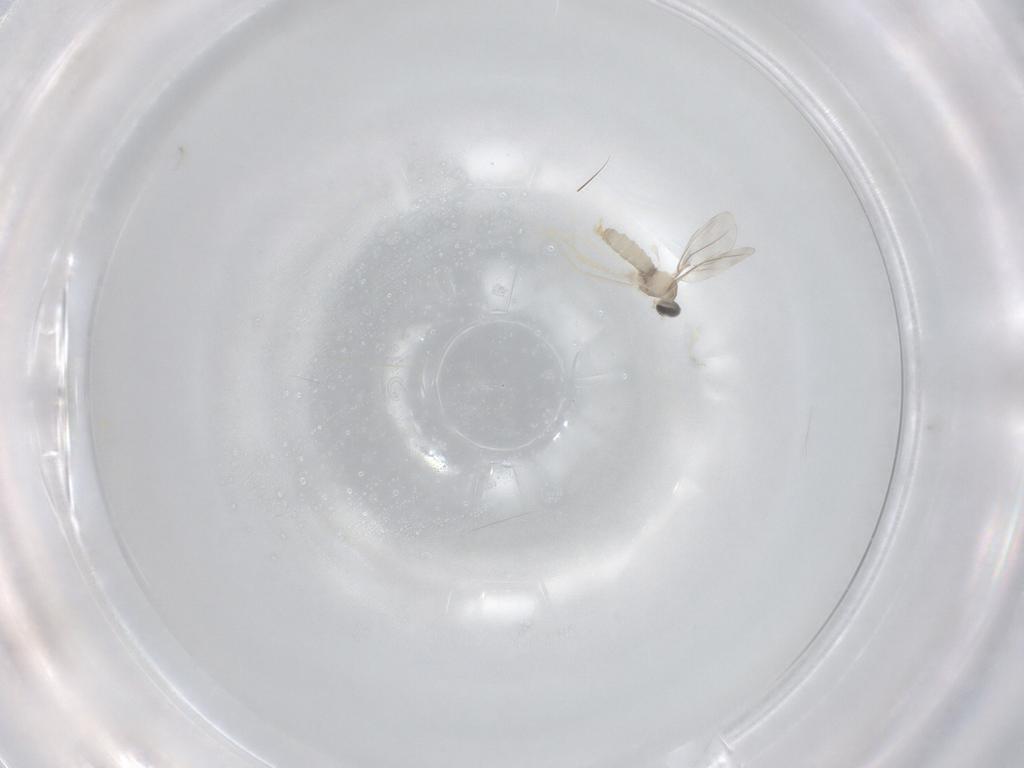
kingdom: Animalia
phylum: Arthropoda
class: Insecta
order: Diptera
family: Cecidomyiidae
